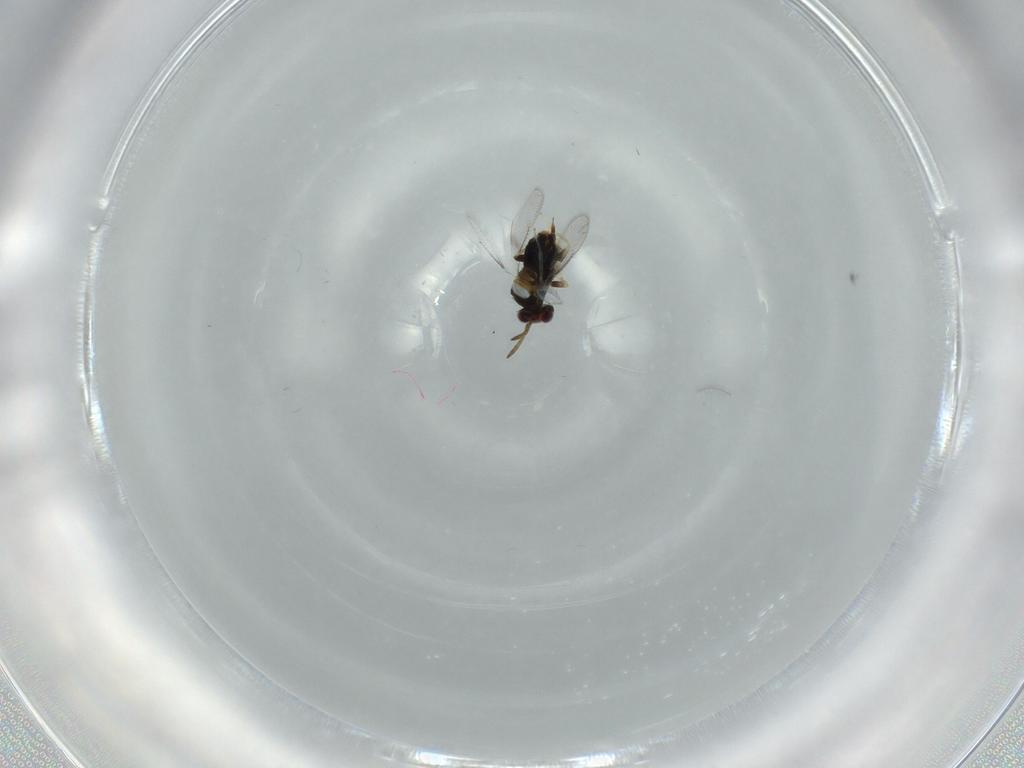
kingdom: Animalia
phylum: Arthropoda
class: Insecta
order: Hymenoptera
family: Aphelinidae
